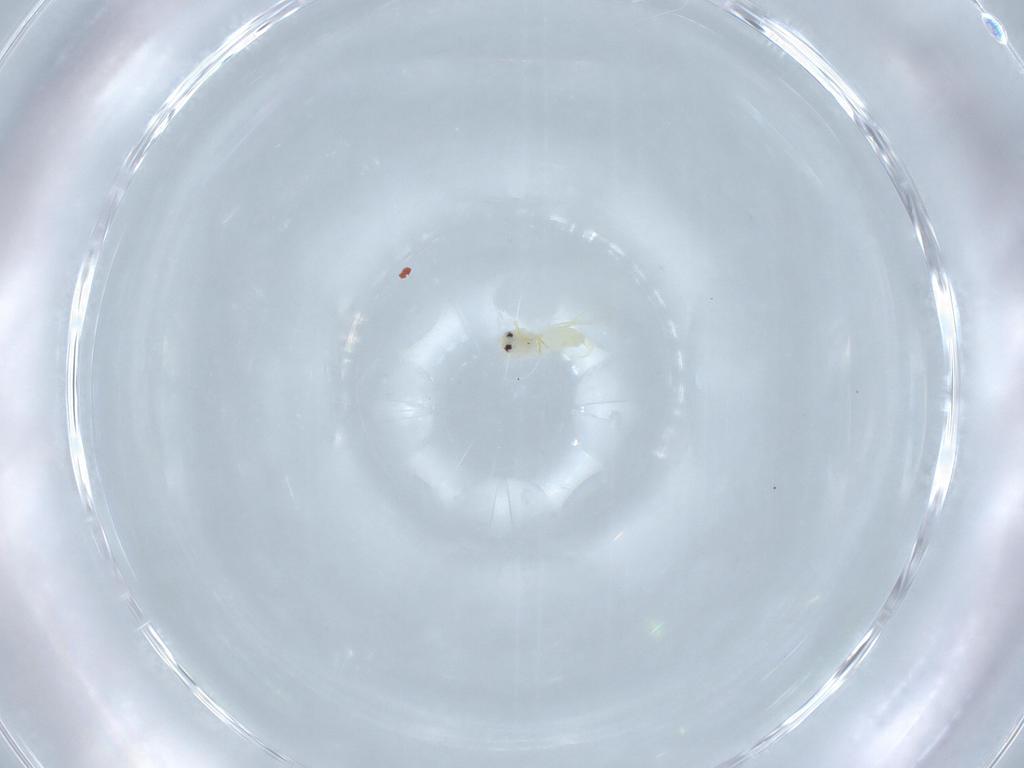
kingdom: Animalia
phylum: Arthropoda
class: Insecta
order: Hemiptera
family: Aleyrodidae
